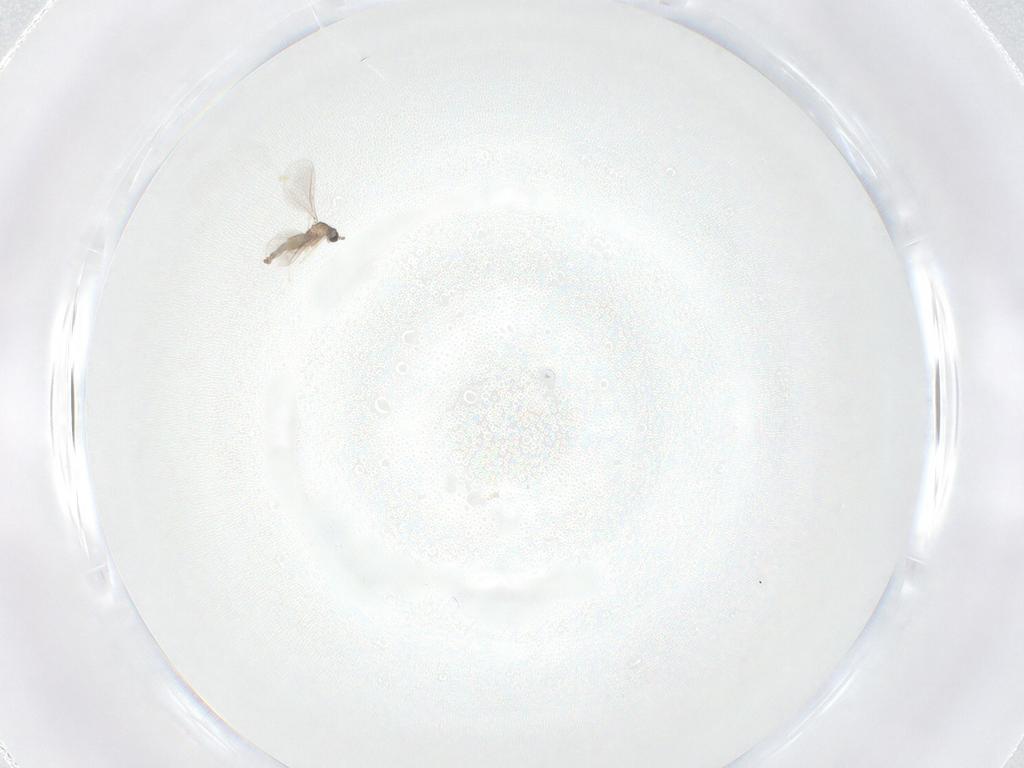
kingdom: Animalia
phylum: Arthropoda
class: Insecta
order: Diptera
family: Cecidomyiidae
